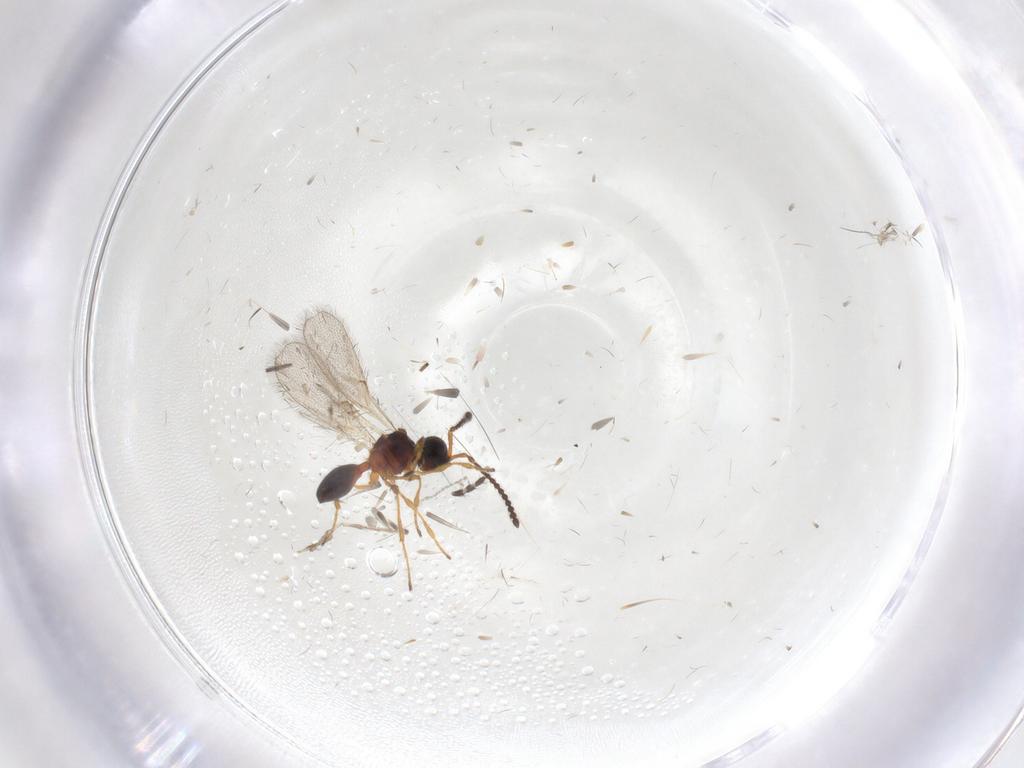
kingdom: Animalia
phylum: Arthropoda
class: Insecta
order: Hymenoptera
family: Diapriidae
